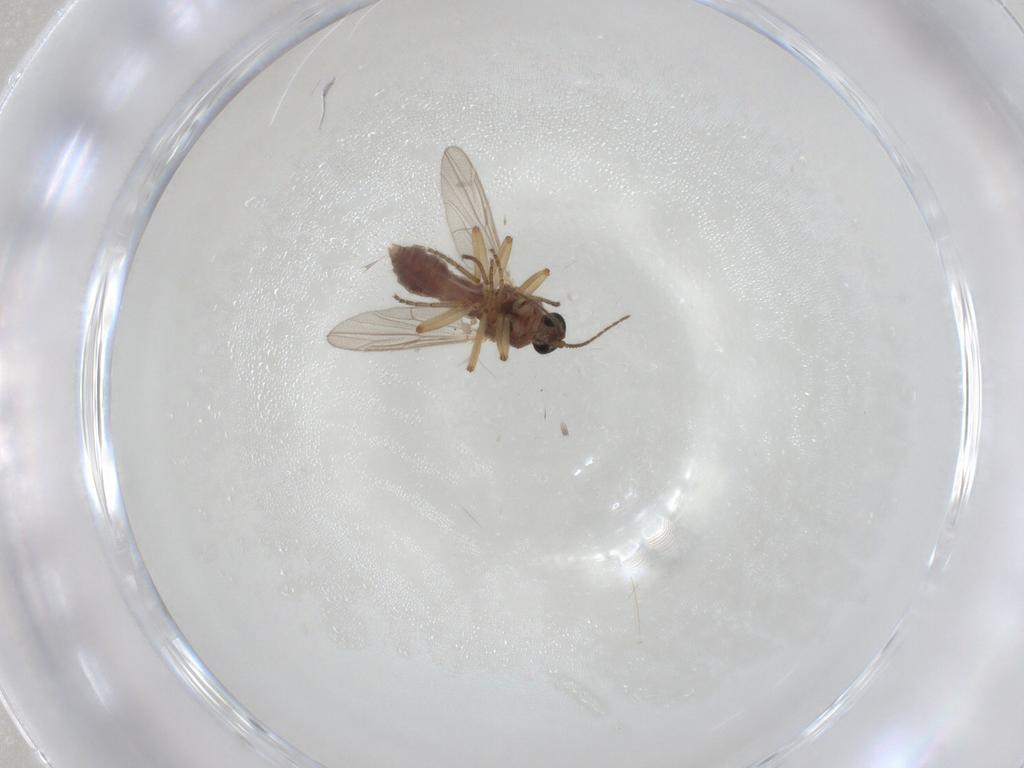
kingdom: Animalia
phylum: Arthropoda
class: Insecta
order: Diptera
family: Ceratopogonidae
